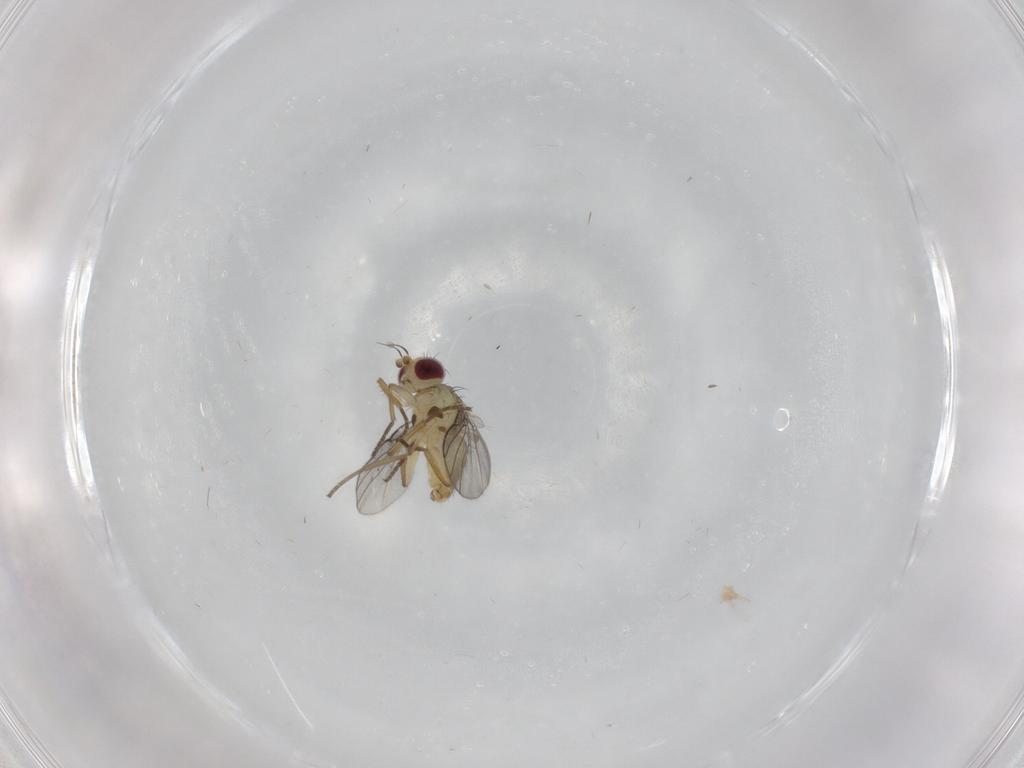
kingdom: Animalia
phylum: Arthropoda
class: Insecta
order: Diptera
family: Agromyzidae
